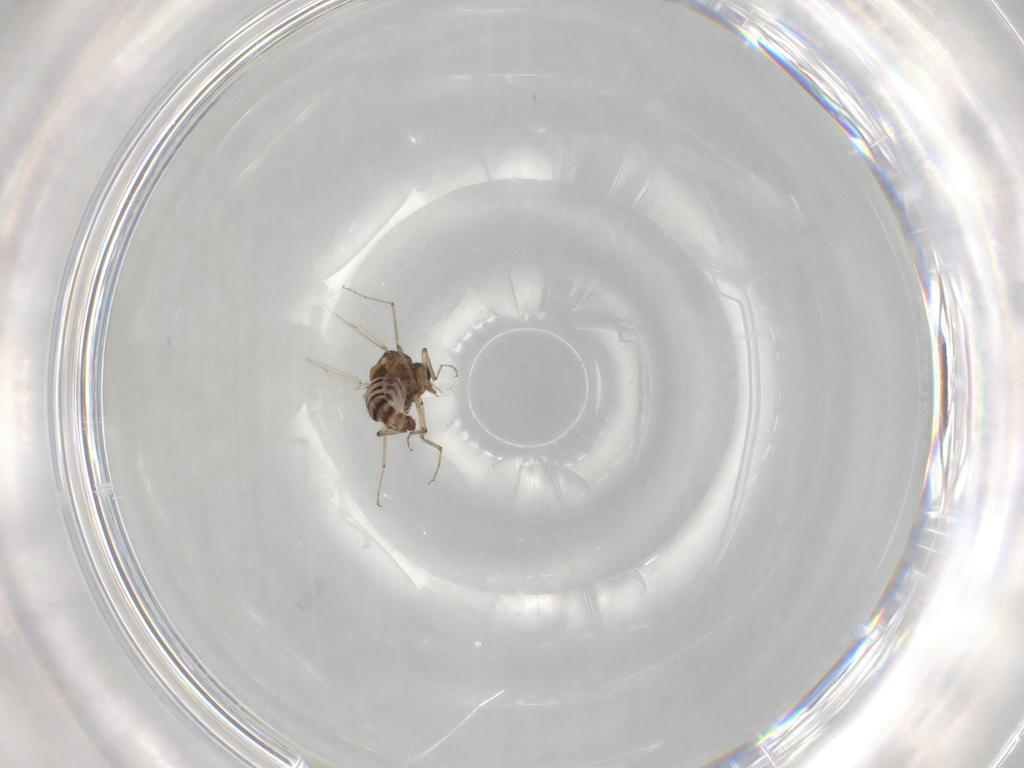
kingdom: Animalia
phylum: Arthropoda
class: Insecta
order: Diptera
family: Ceratopogonidae
